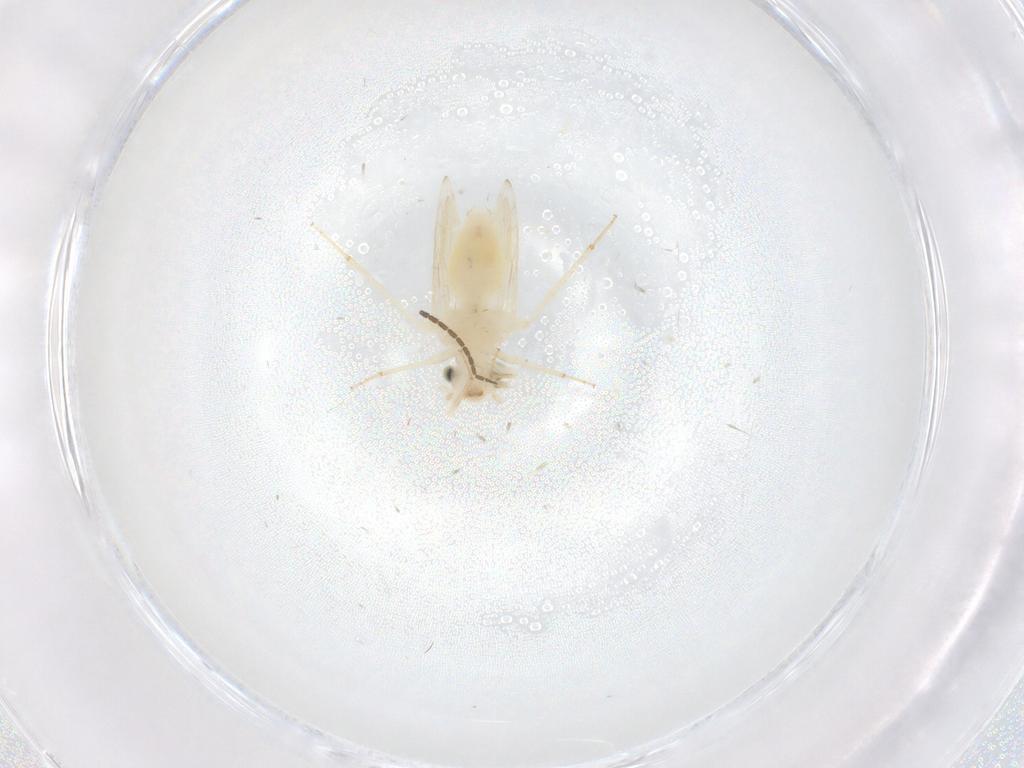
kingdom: Animalia
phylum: Arthropoda
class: Insecta
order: Psocodea
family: Lepidopsocidae
